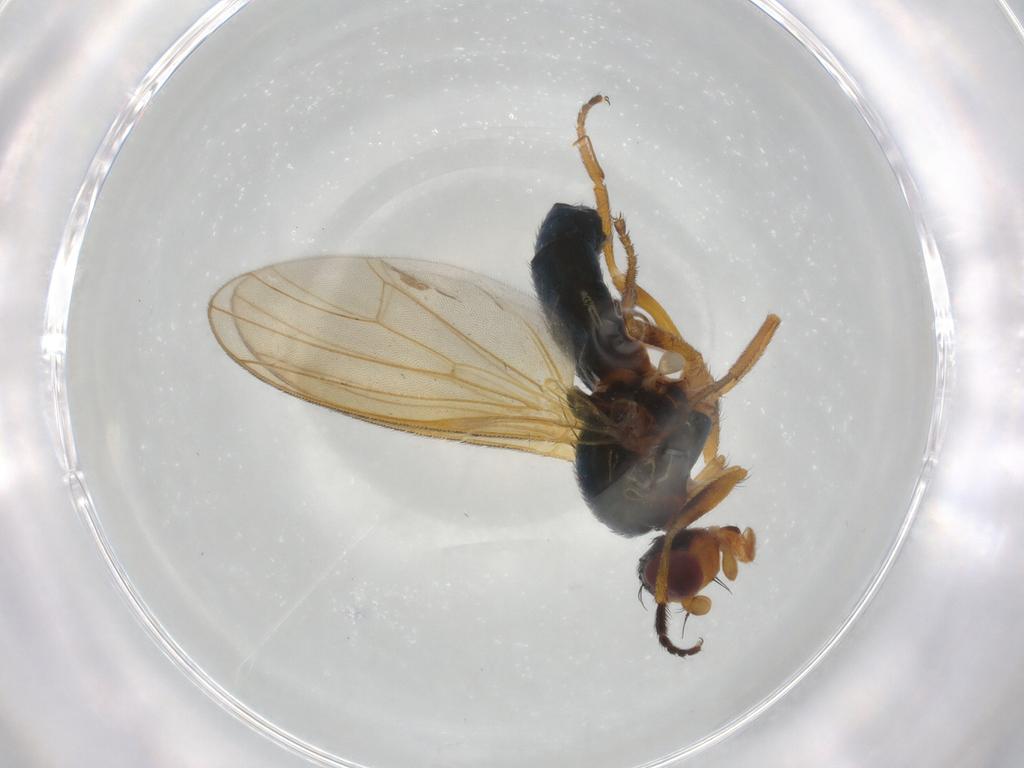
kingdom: Animalia
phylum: Arthropoda
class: Insecta
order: Diptera
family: Piophilidae
